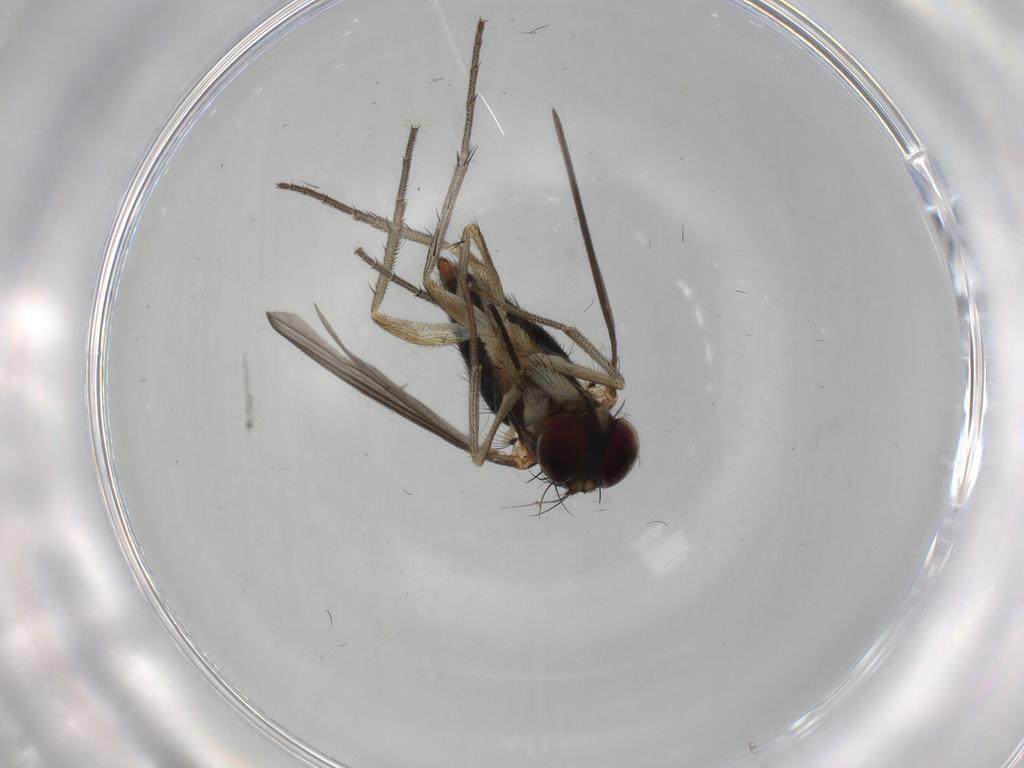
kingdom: Animalia
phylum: Arthropoda
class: Insecta
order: Diptera
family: Dolichopodidae
